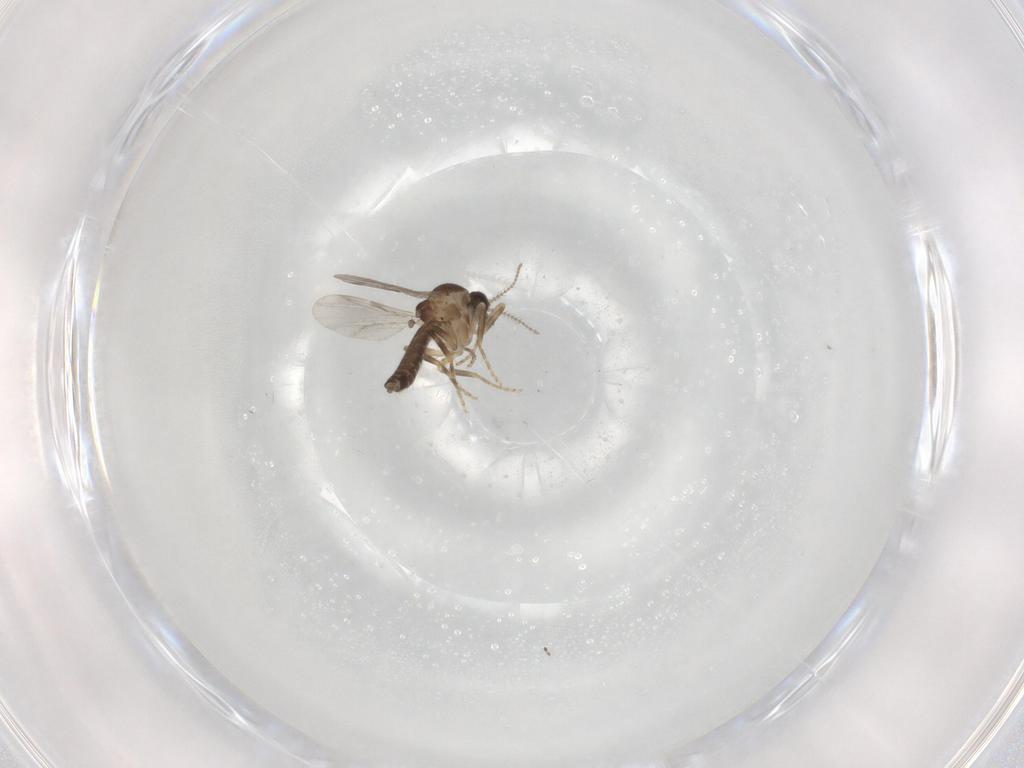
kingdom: Animalia
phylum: Arthropoda
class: Insecta
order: Diptera
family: Ceratopogonidae
